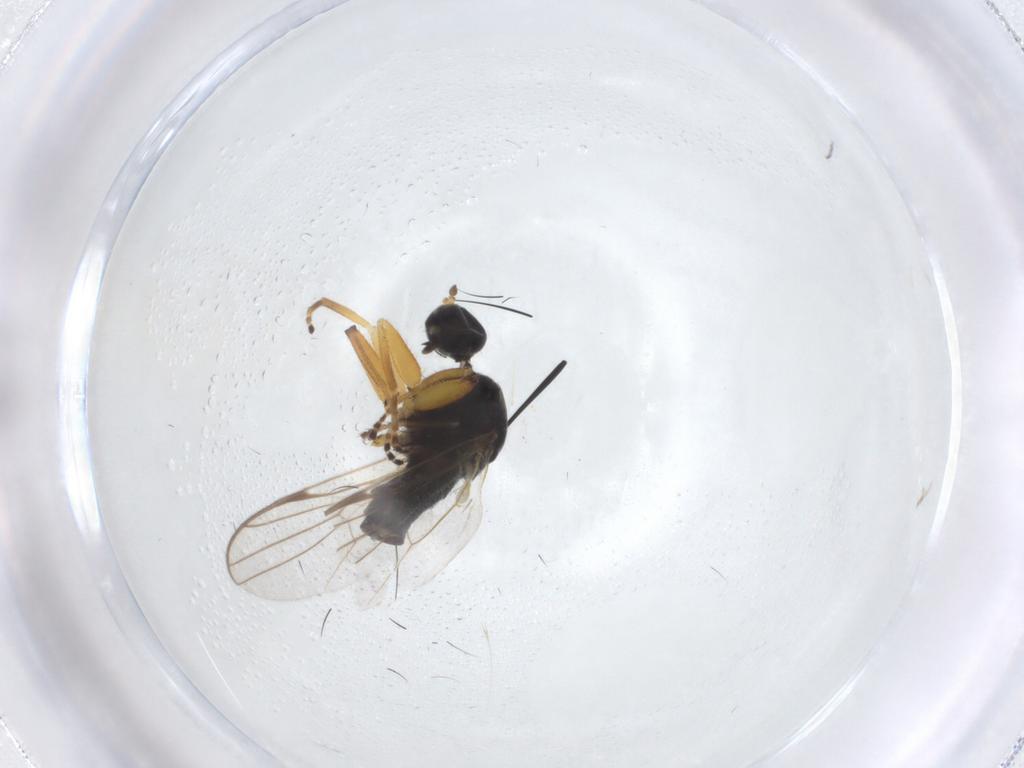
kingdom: Animalia
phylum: Arthropoda
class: Insecta
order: Diptera
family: Hybotidae
